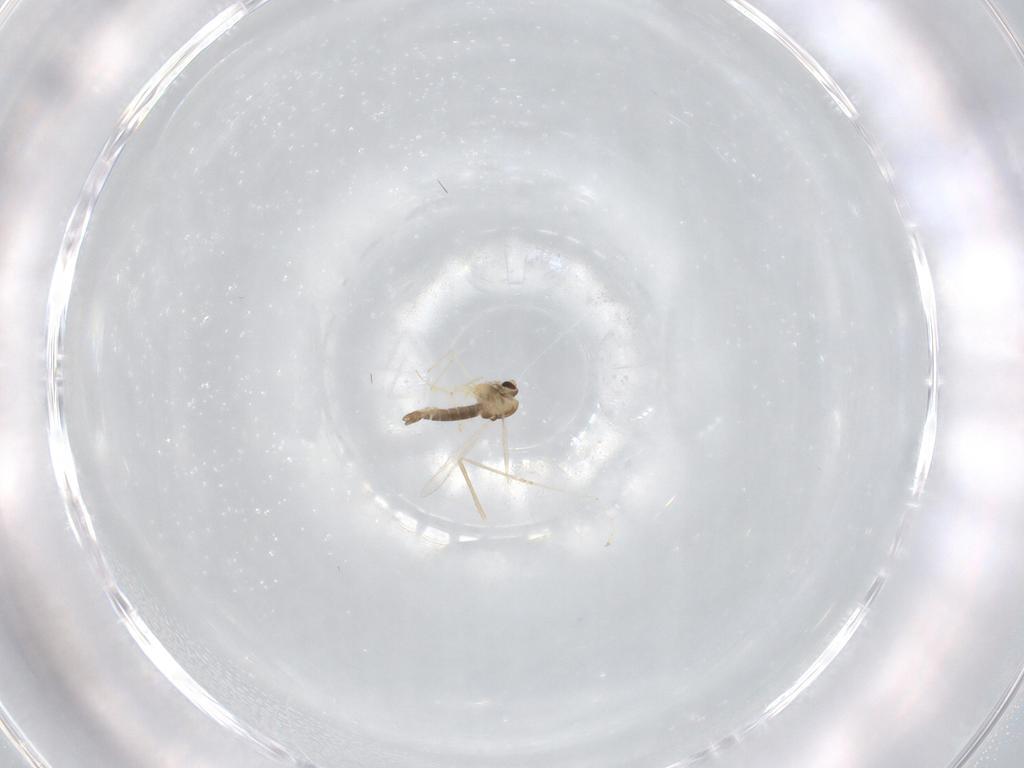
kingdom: Animalia
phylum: Arthropoda
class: Insecta
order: Diptera
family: Chironomidae
